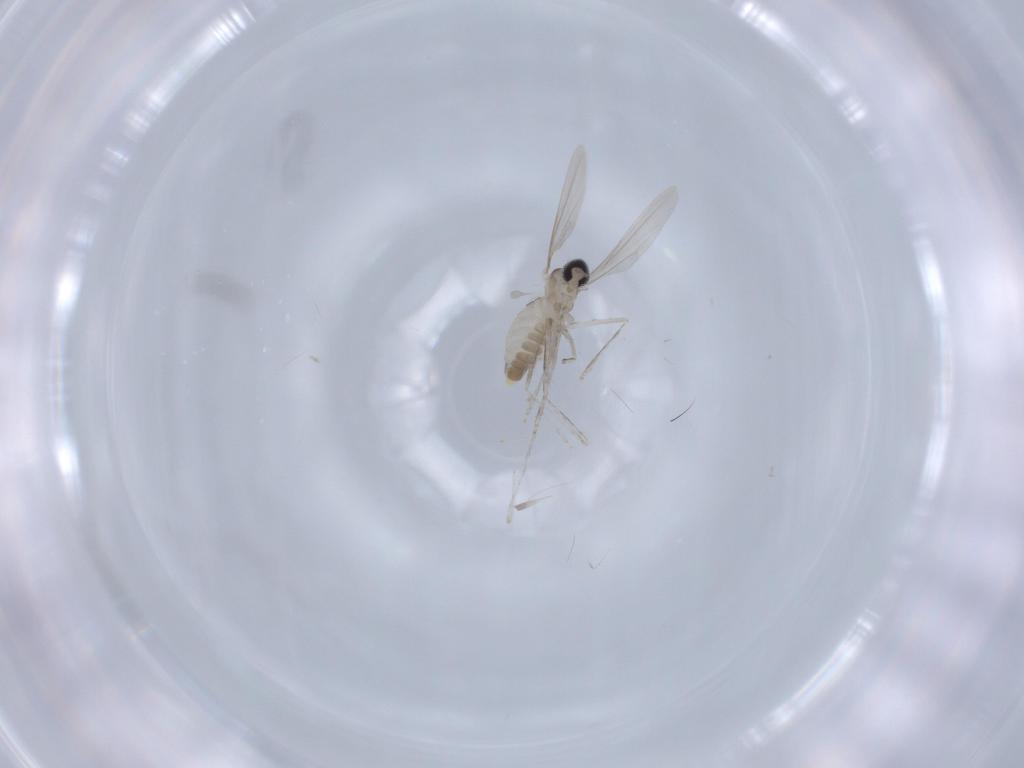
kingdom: Animalia
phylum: Arthropoda
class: Insecta
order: Diptera
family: Cecidomyiidae
